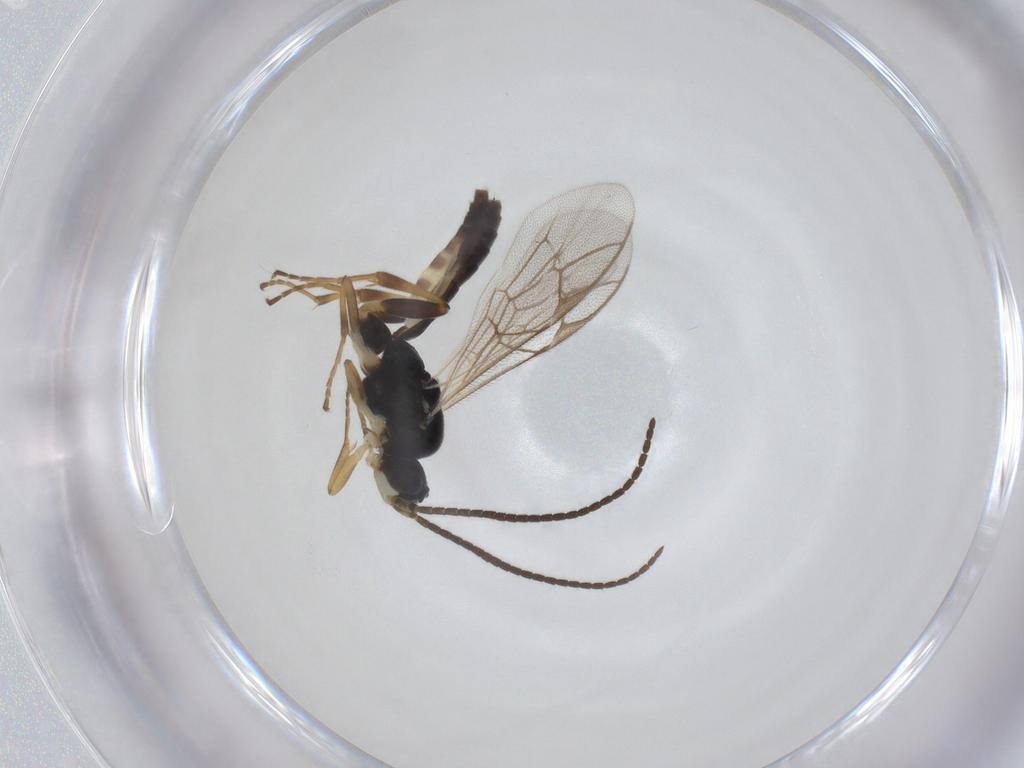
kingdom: Animalia
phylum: Arthropoda
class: Insecta
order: Hymenoptera
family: Ichneumonidae
